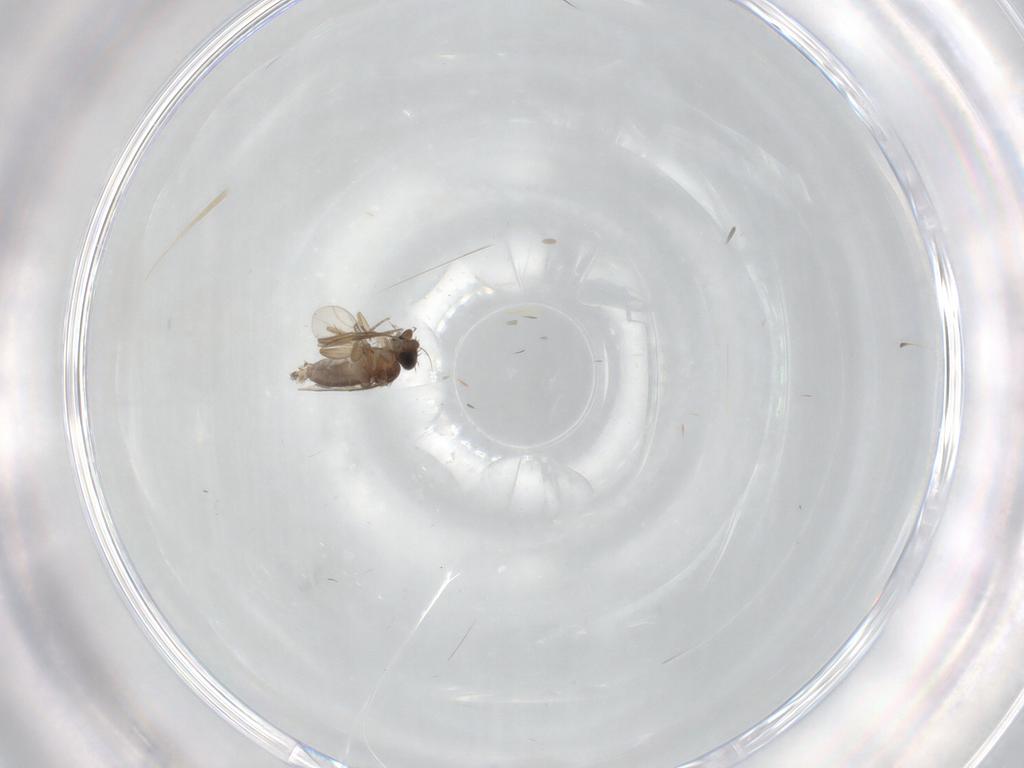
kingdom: Animalia
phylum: Arthropoda
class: Insecta
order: Diptera
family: Phoridae
